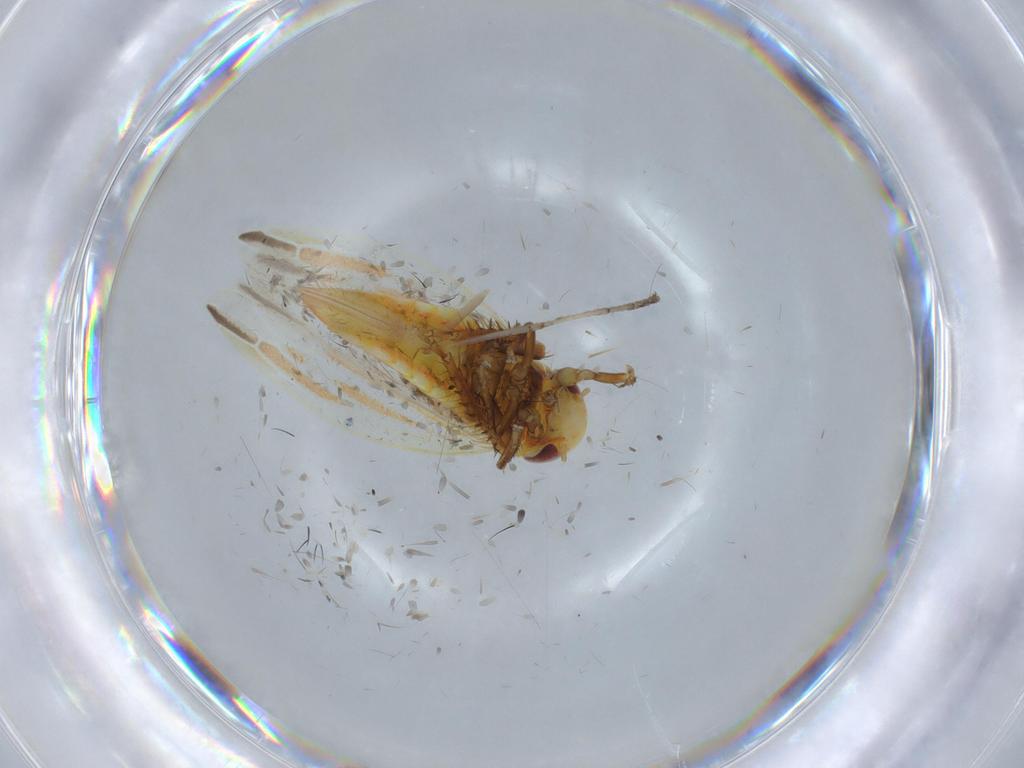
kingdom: Animalia
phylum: Arthropoda
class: Insecta
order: Hemiptera
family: Cicadellidae
